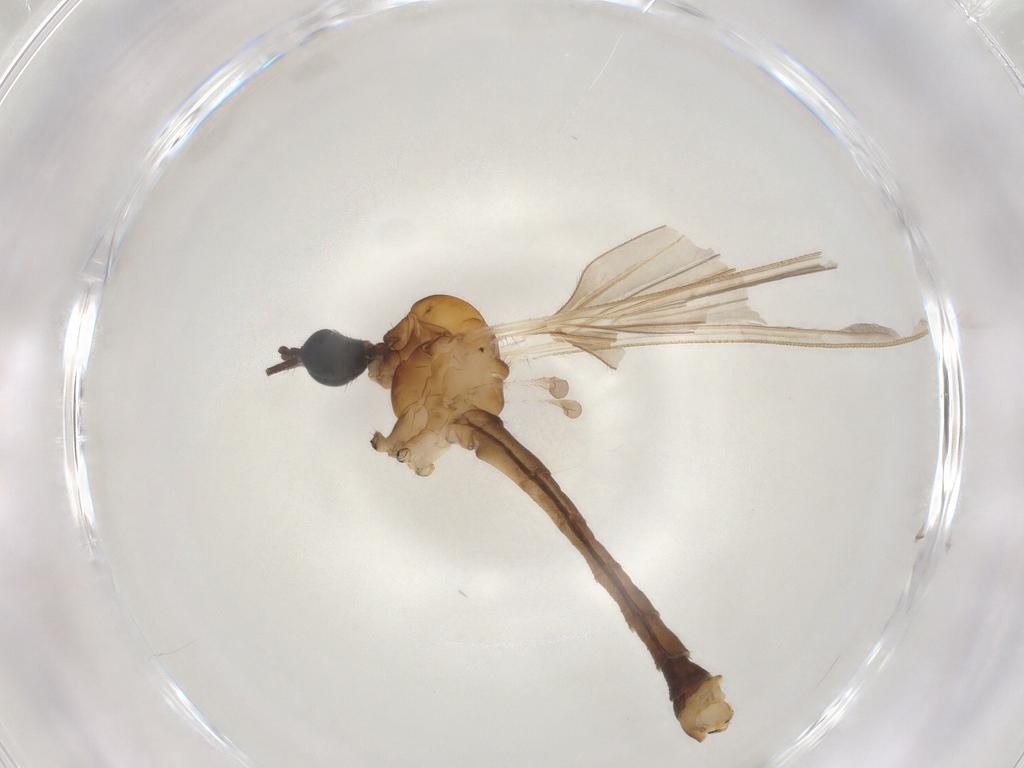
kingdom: Animalia
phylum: Arthropoda
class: Insecta
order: Diptera
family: Cecidomyiidae
